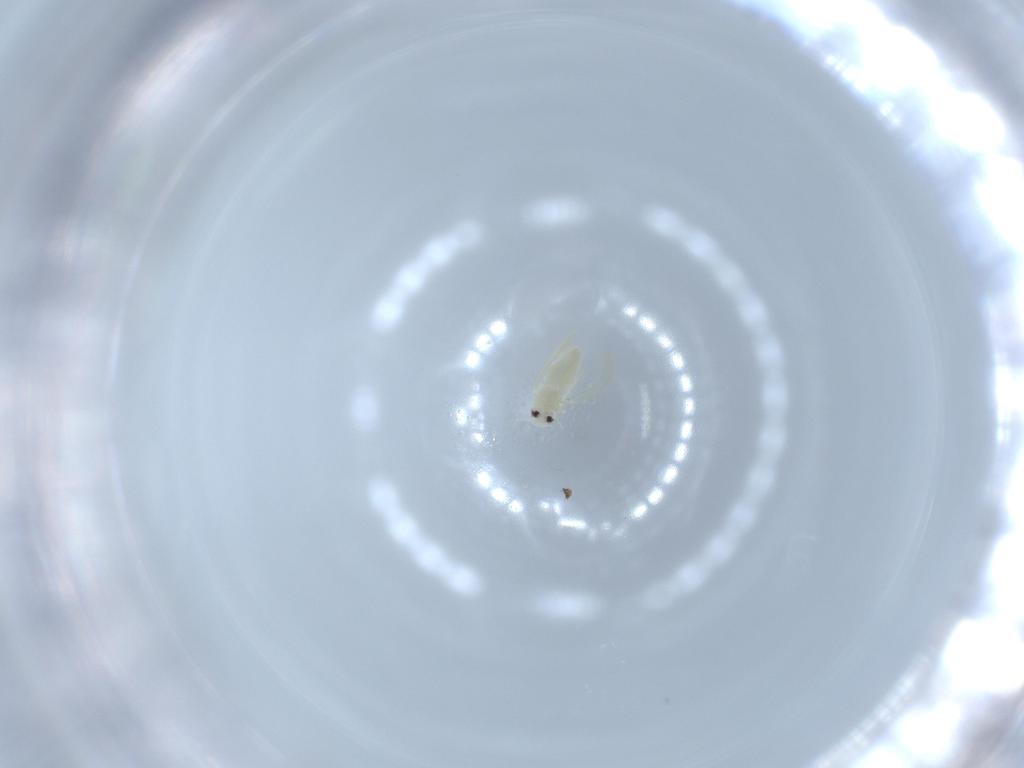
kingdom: Animalia
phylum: Arthropoda
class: Insecta
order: Hemiptera
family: Aleyrodidae
